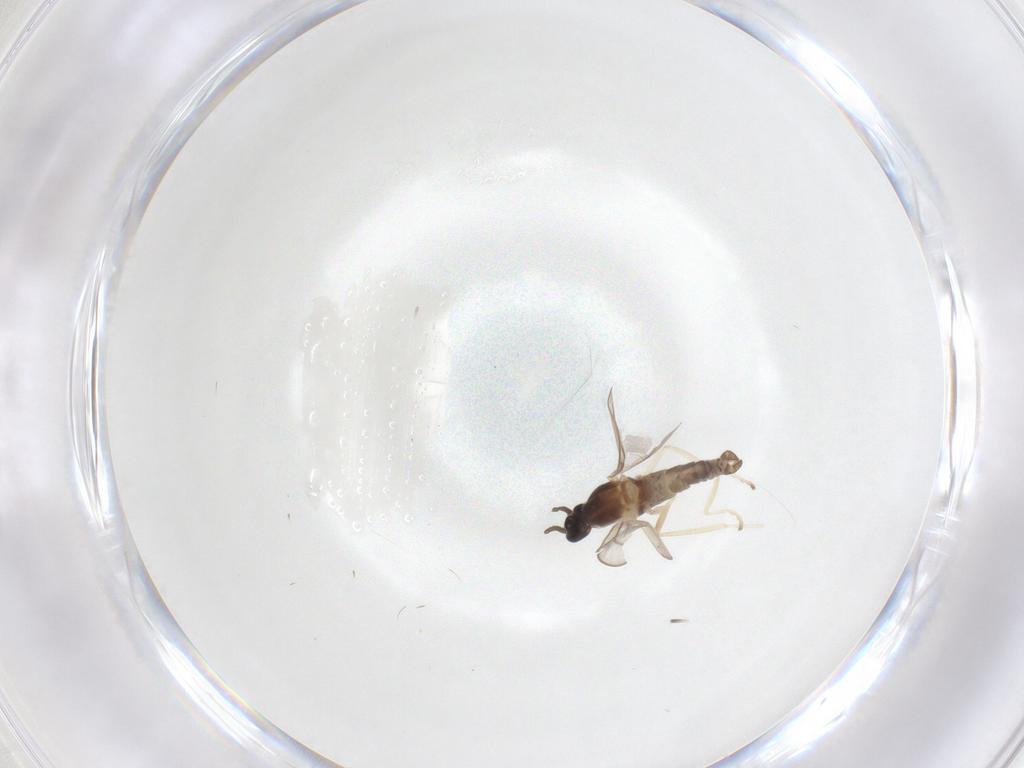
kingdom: Animalia
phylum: Arthropoda
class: Insecta
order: Diptera
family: Cecidomyiidae
